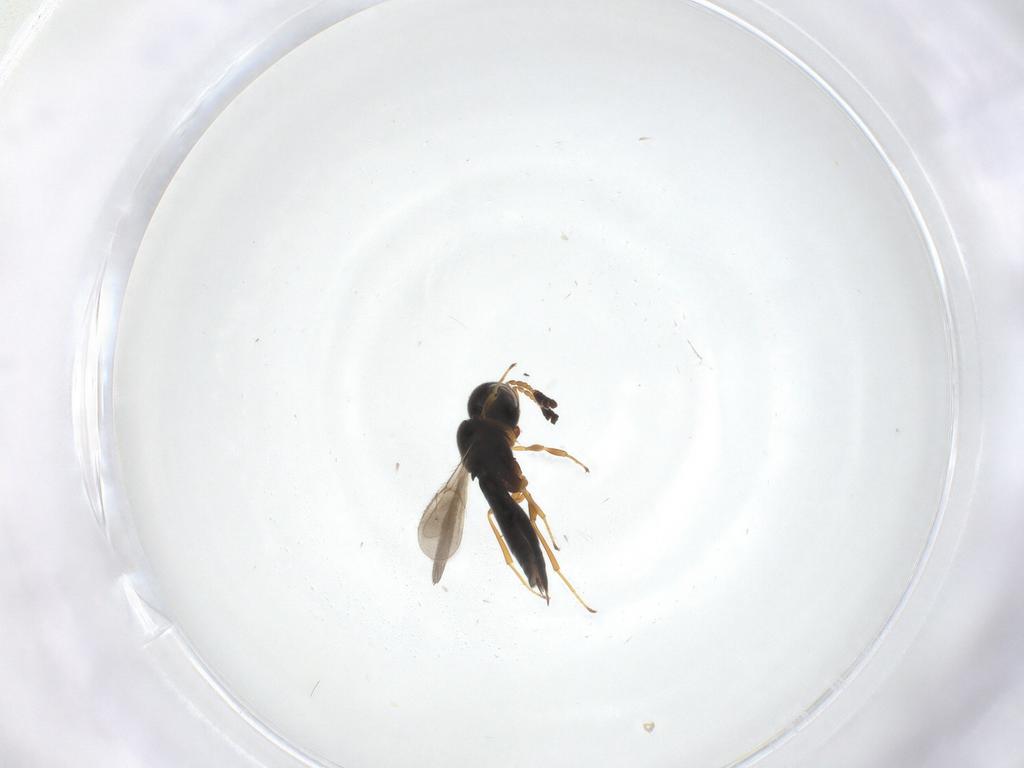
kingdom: Animalia
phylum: Arthropoda
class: Insecta
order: Hymenoptera
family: Scelionidae
